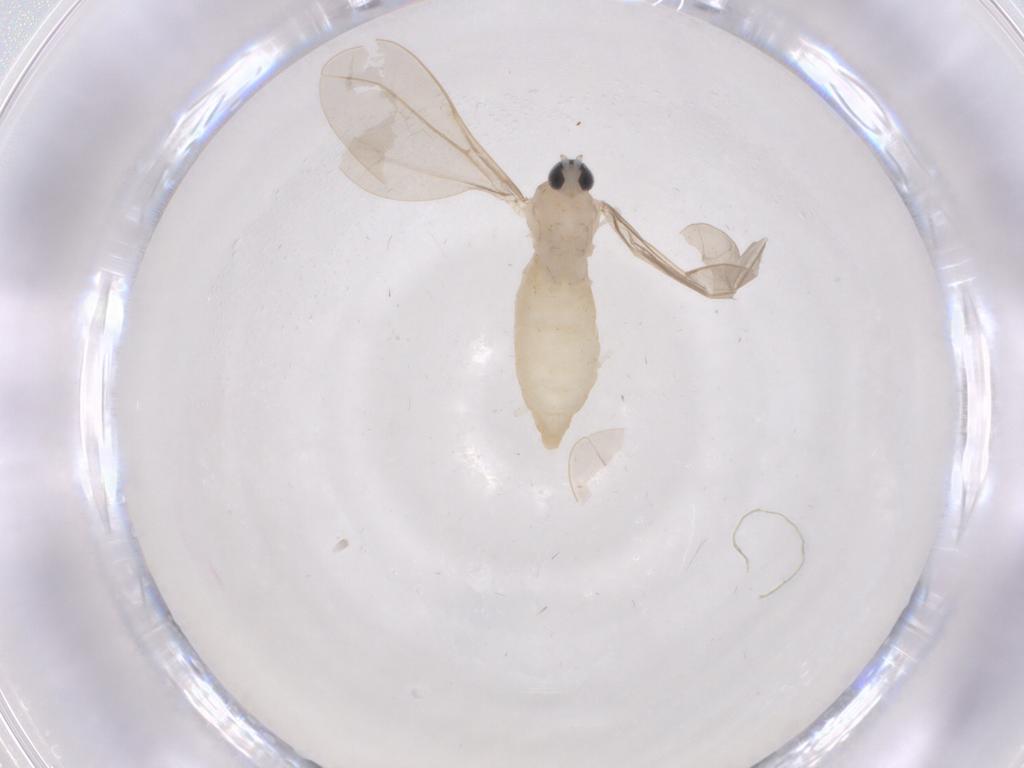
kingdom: Animalia
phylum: Arthropoda
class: Insecta
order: Diptera
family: Cecidomyiidae
